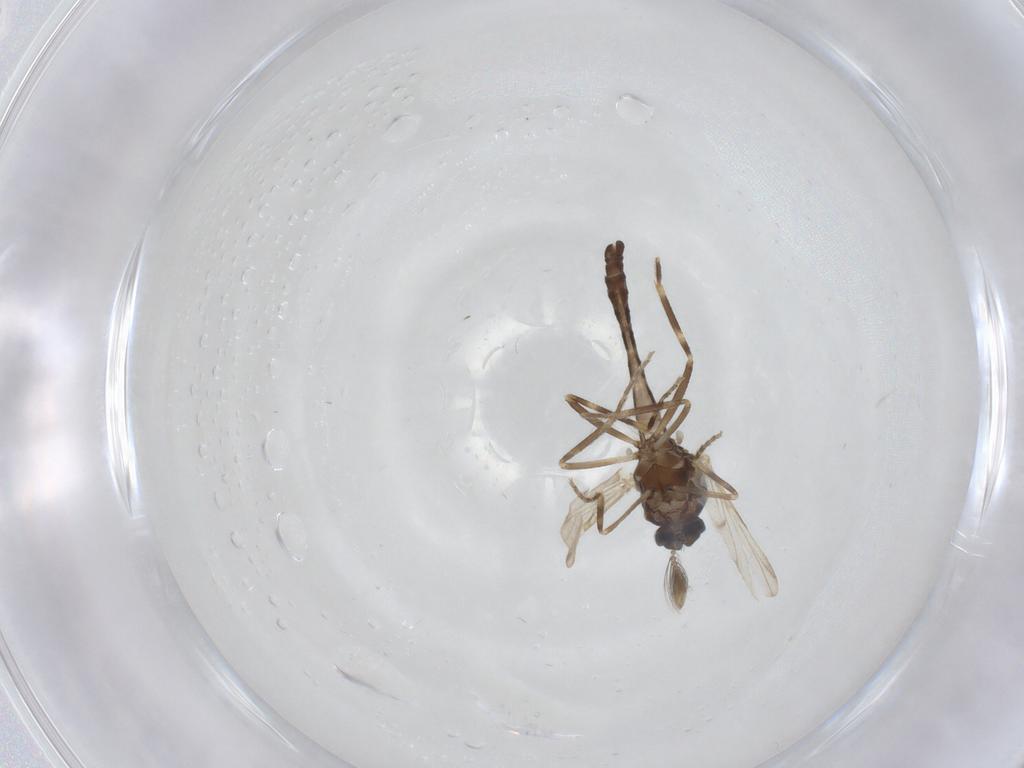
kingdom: Animalia
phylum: Arthropoda
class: Insecta
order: Diptera
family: Ceratopogonidae
